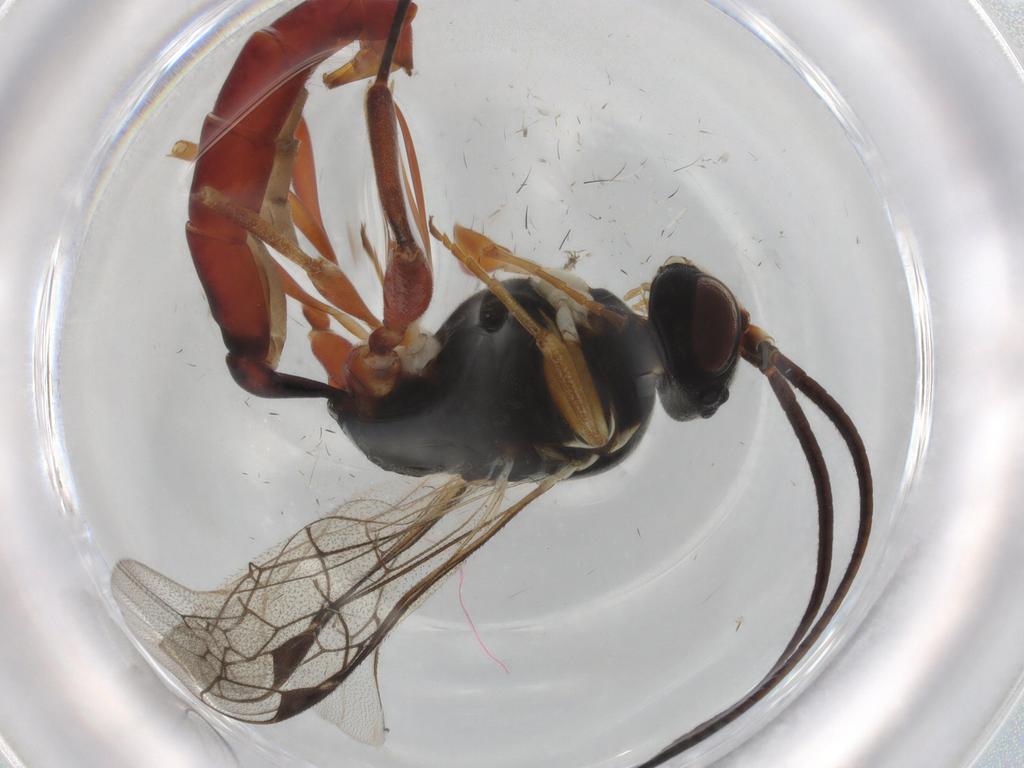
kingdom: Animalia
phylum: Arthropoda
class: Insecta
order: Hymenoptera
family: Ichneumonidae
